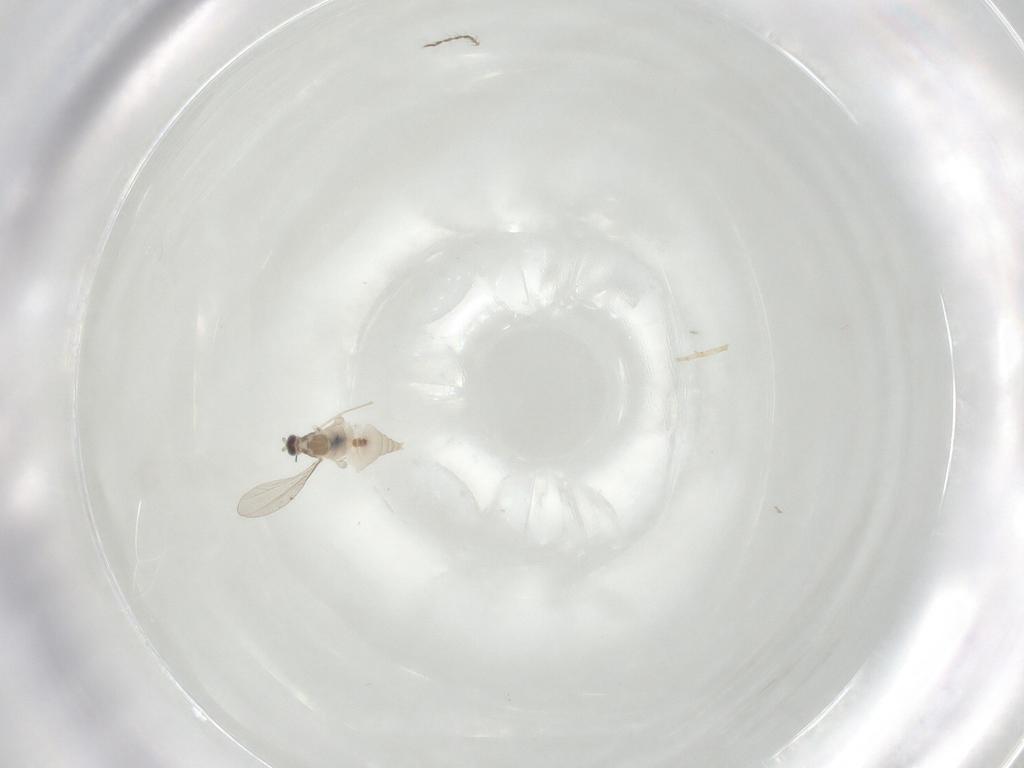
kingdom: Animalia
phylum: Arthropoda
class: Insecta
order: Diptera
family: Chironomidae
